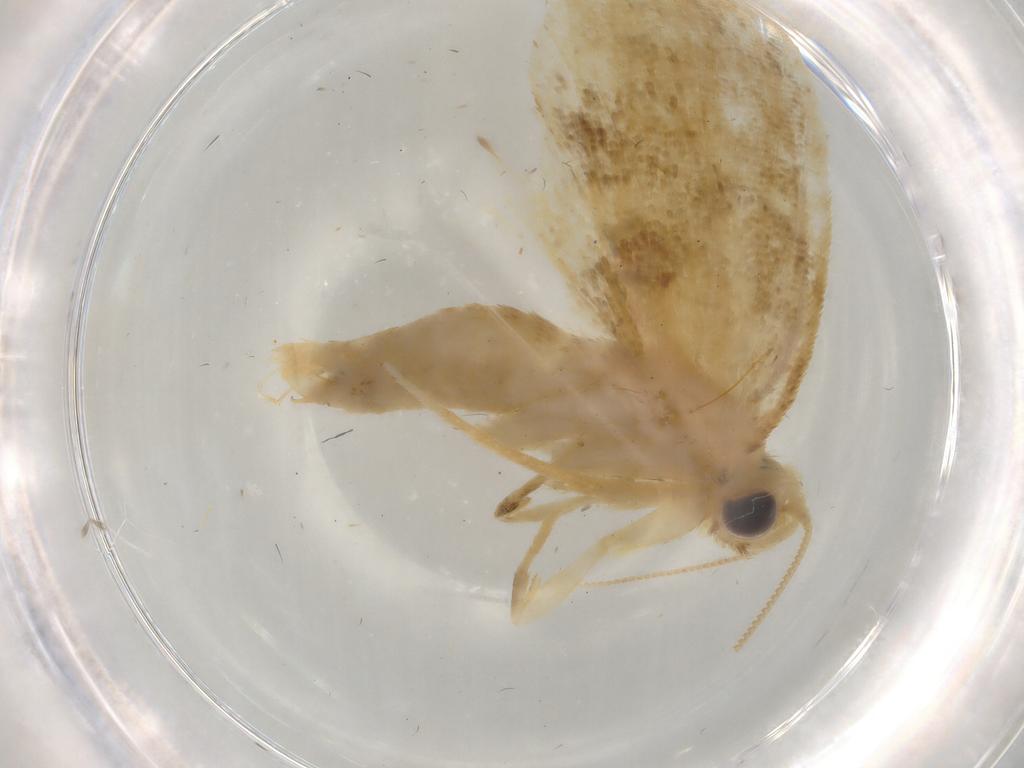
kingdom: Animalia
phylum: Arthropoda
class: Insecta
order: Lepidoptera
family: Psychidae
